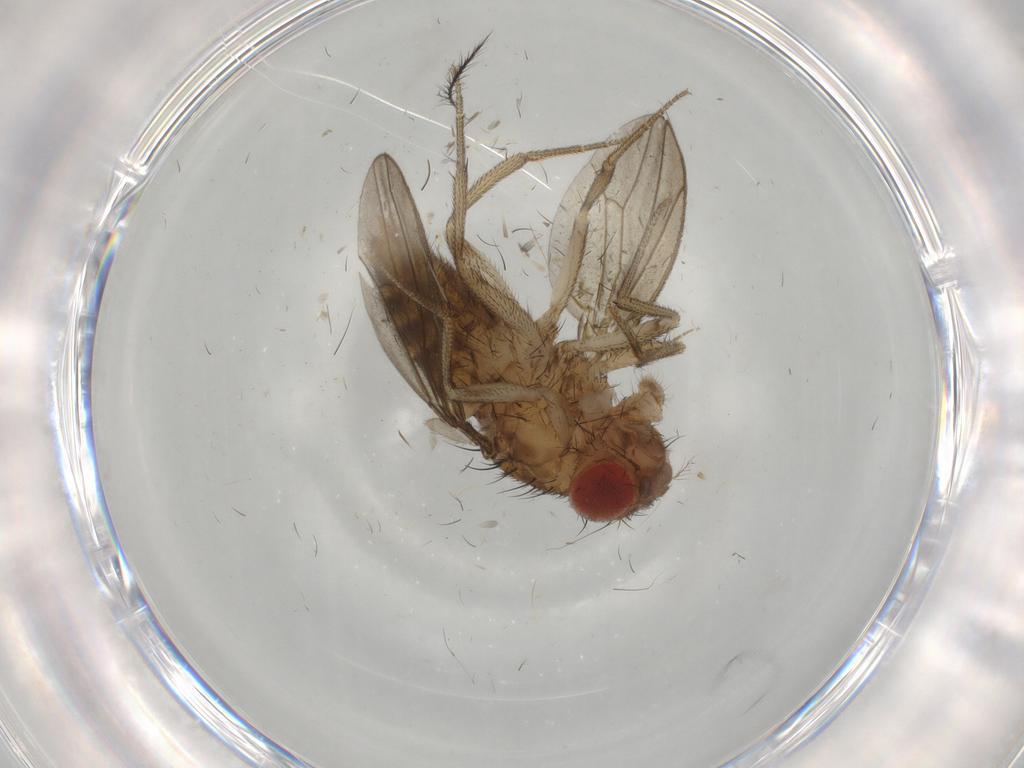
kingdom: Animalia
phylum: Arthropoda
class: Insecta
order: Diptera
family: Drosophilidae
